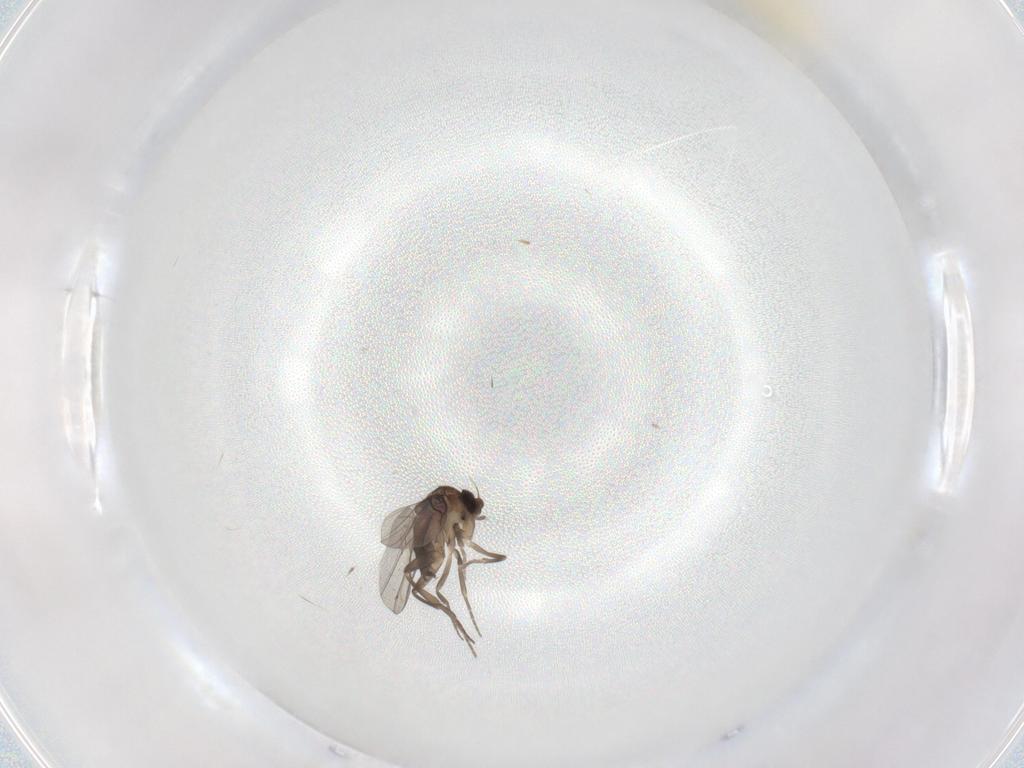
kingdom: Animalia
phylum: Arthropoda
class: Insecta
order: Diptera
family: Phoridae
